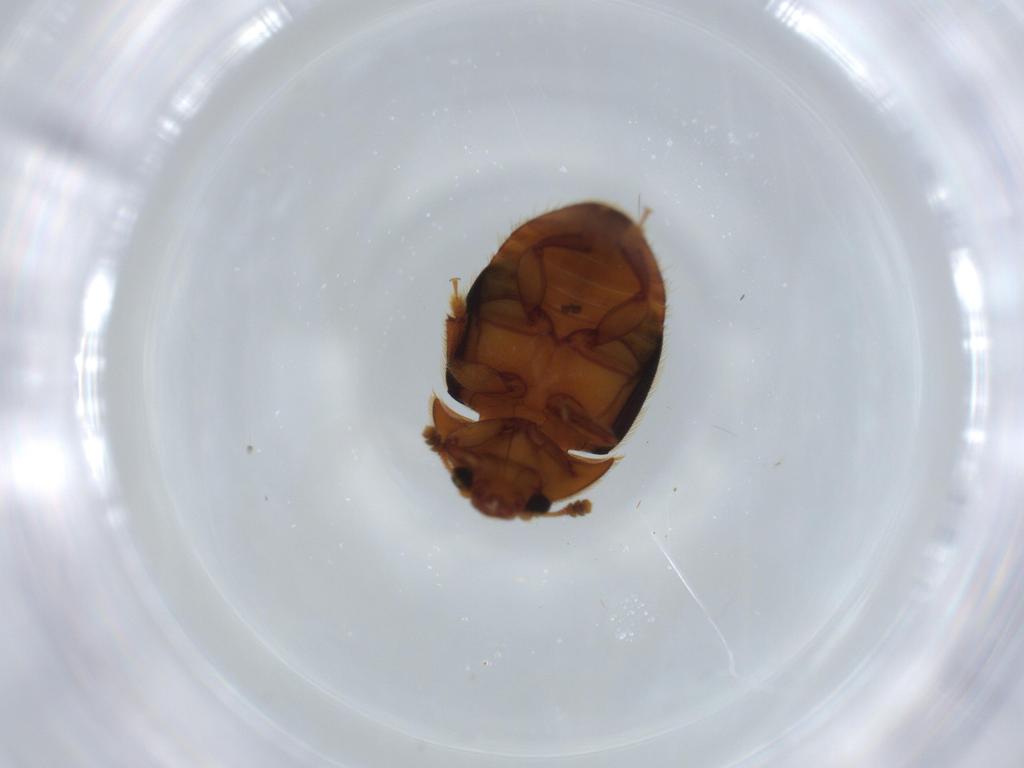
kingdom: Animalia
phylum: Arthropoda
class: Insecta
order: Coleoptera
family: Nitidulidae
